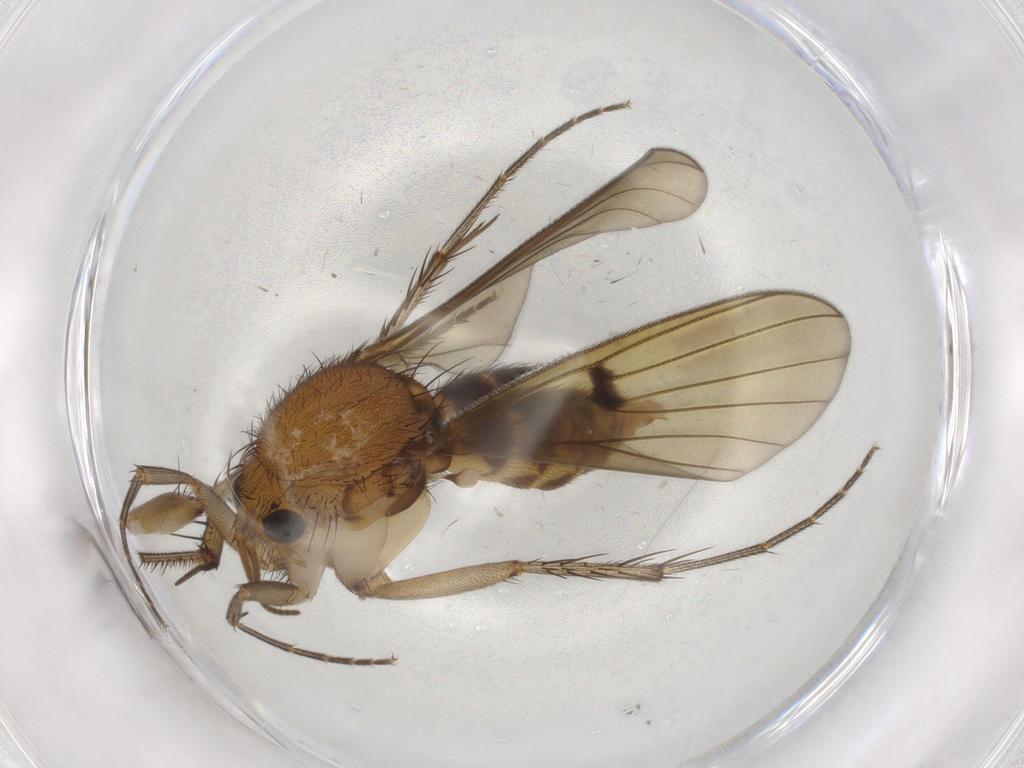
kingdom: Animalia
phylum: Arthropoda
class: Insecta
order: Diptera
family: Mycetophilidae
